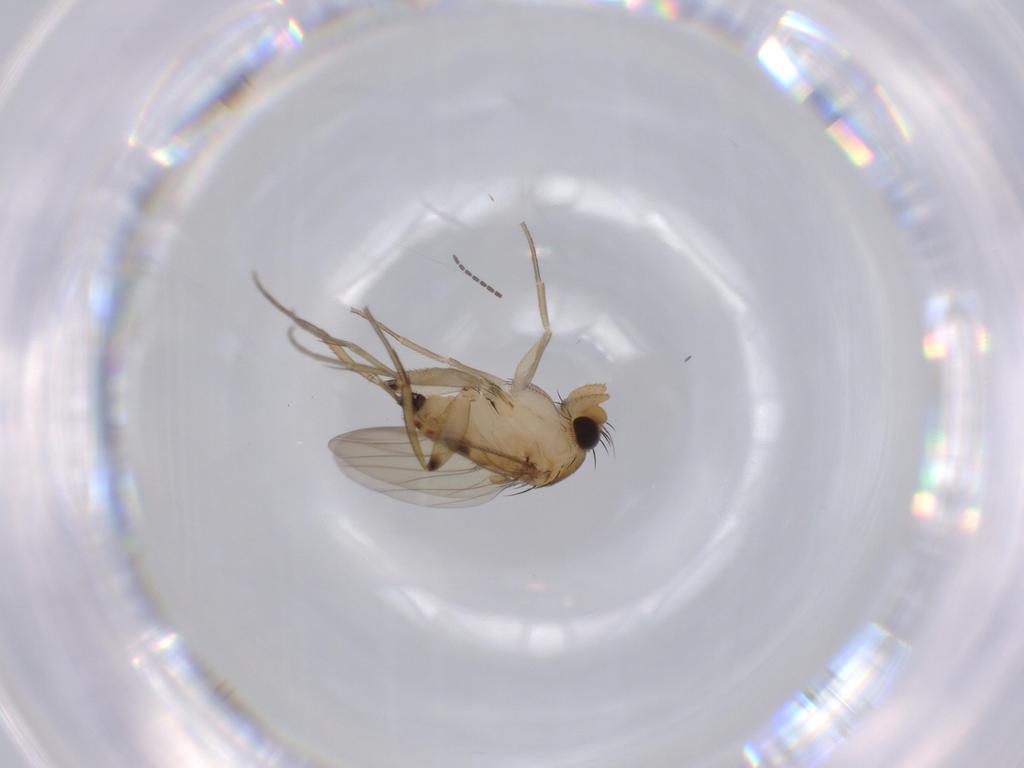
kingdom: Animalia
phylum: Arthropoda
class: Insecta
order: Diptera
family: Phoridae
